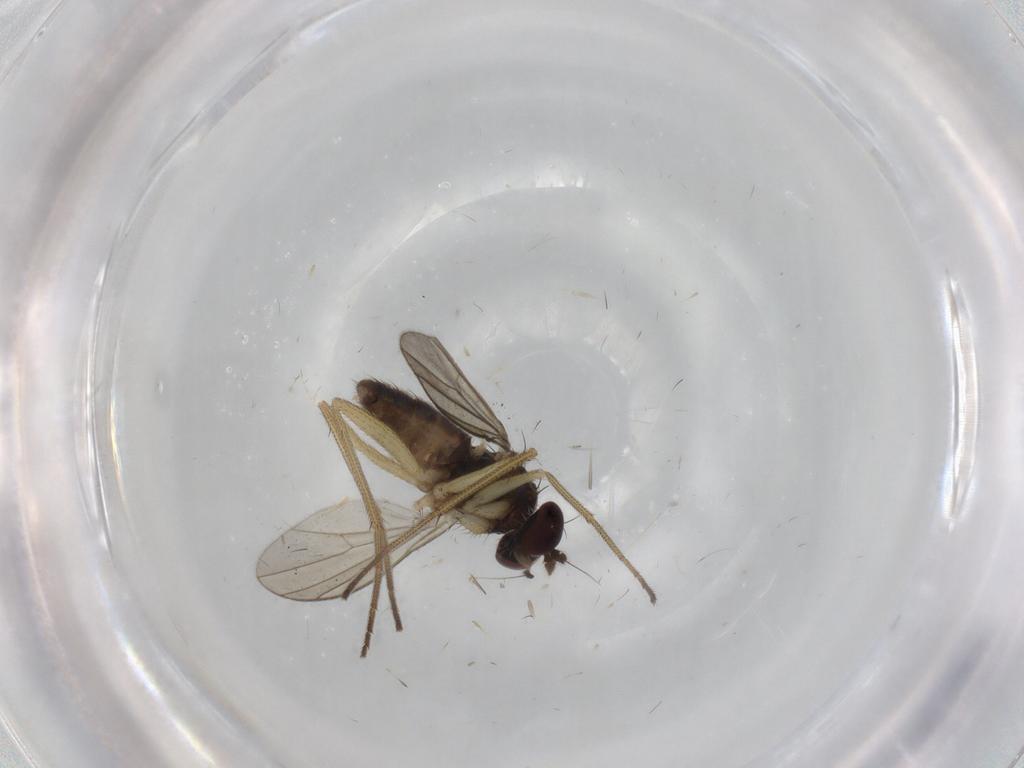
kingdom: Animalia
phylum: Arthropoda
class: Insecta
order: Diptera
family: Dolichopodidae
